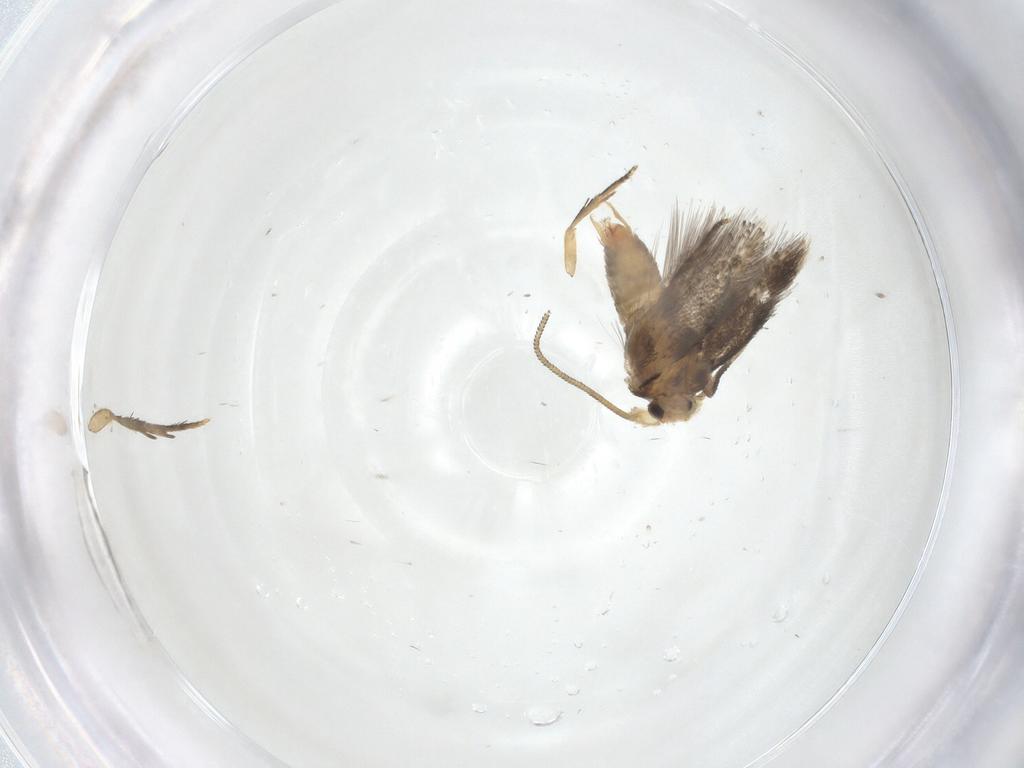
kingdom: Animalia
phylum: Arthropoda
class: Insecta
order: Lepidoptera
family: Nepticulidae
